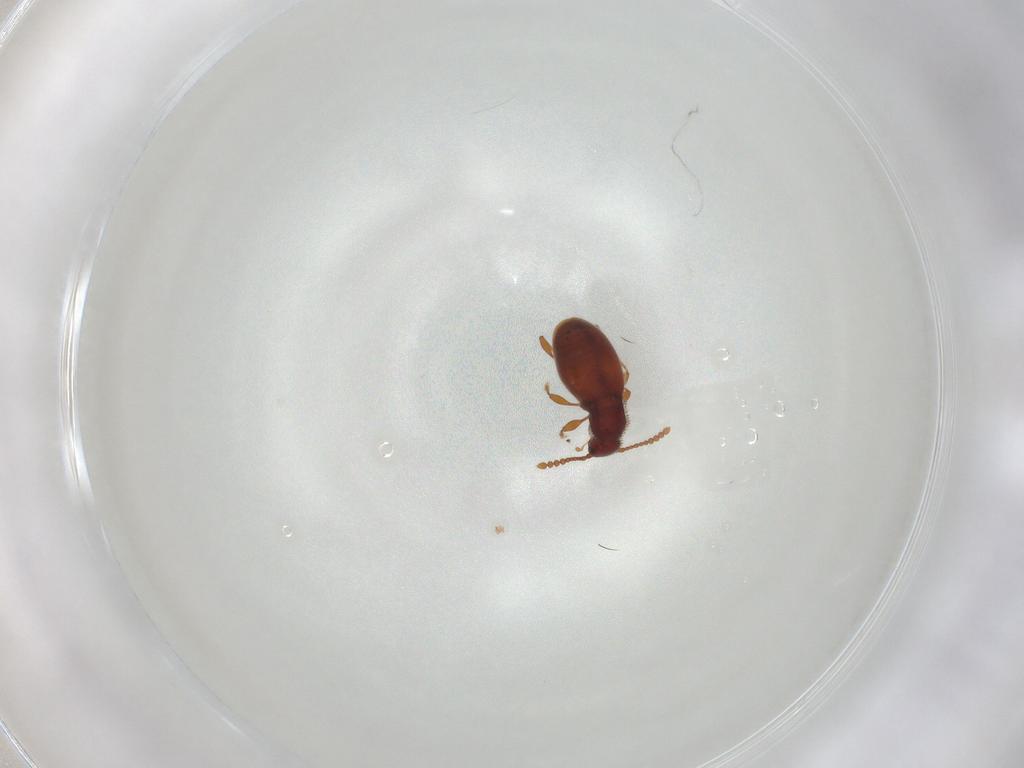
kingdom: Animalia
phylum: Arthropoda
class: Insecta
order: Coleoptera
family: Staphylinidae
